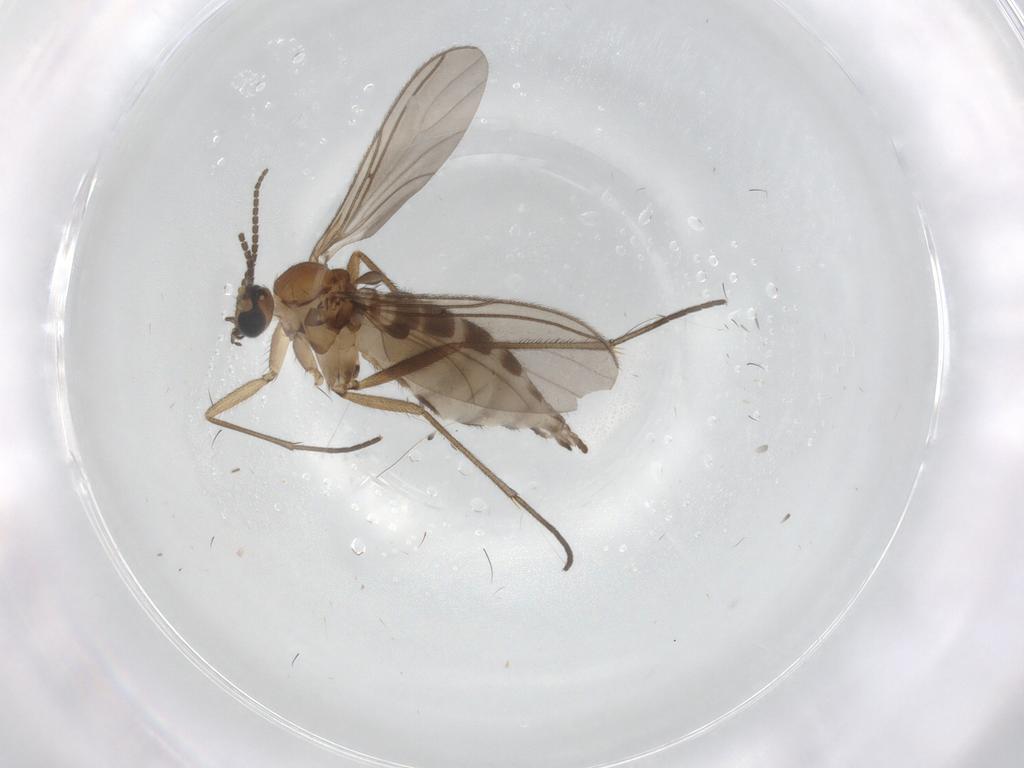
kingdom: Animalia
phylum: Arthropoda
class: Insecta
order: Diptera
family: Sciaridae
